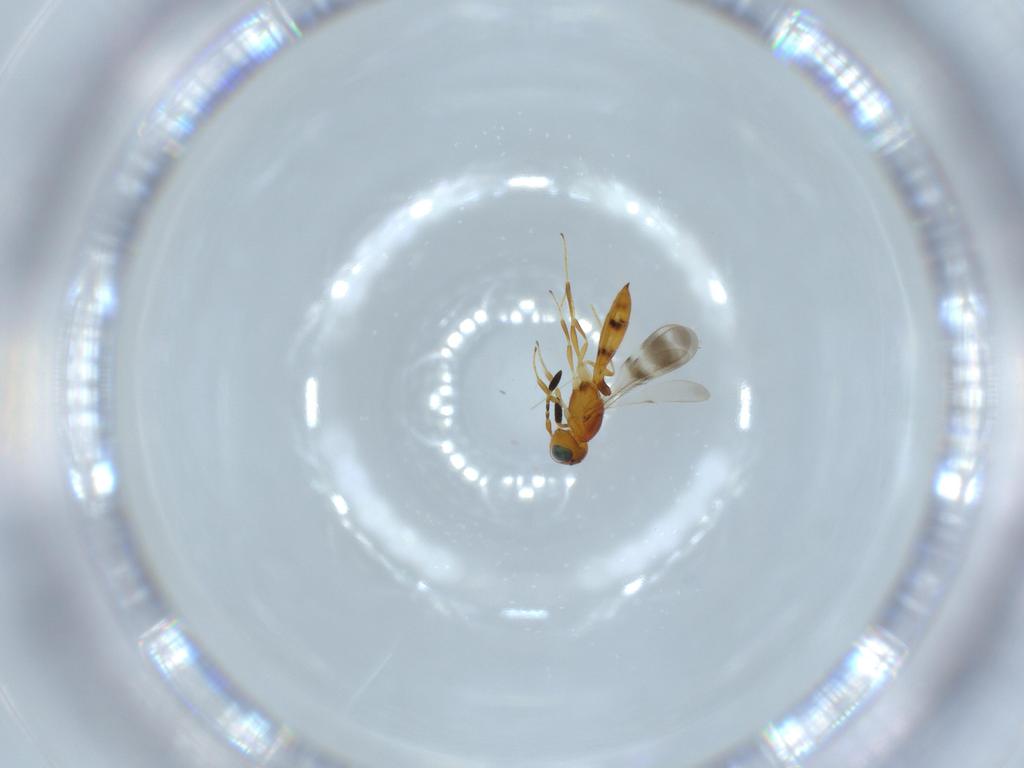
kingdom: Animalia
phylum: Arthropoda
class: Insecta
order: Hymenoptera
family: Scelionidae
